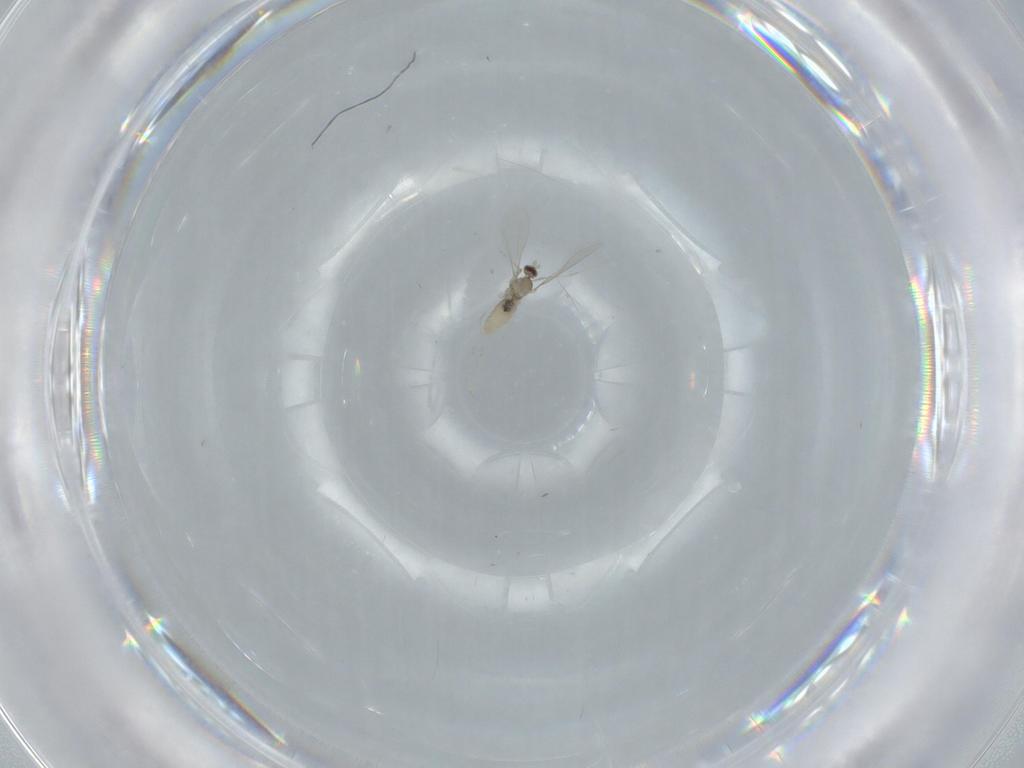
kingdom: Animalia
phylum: Arthropoda
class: Insecta
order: Diptera
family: Cecidomyiidae
